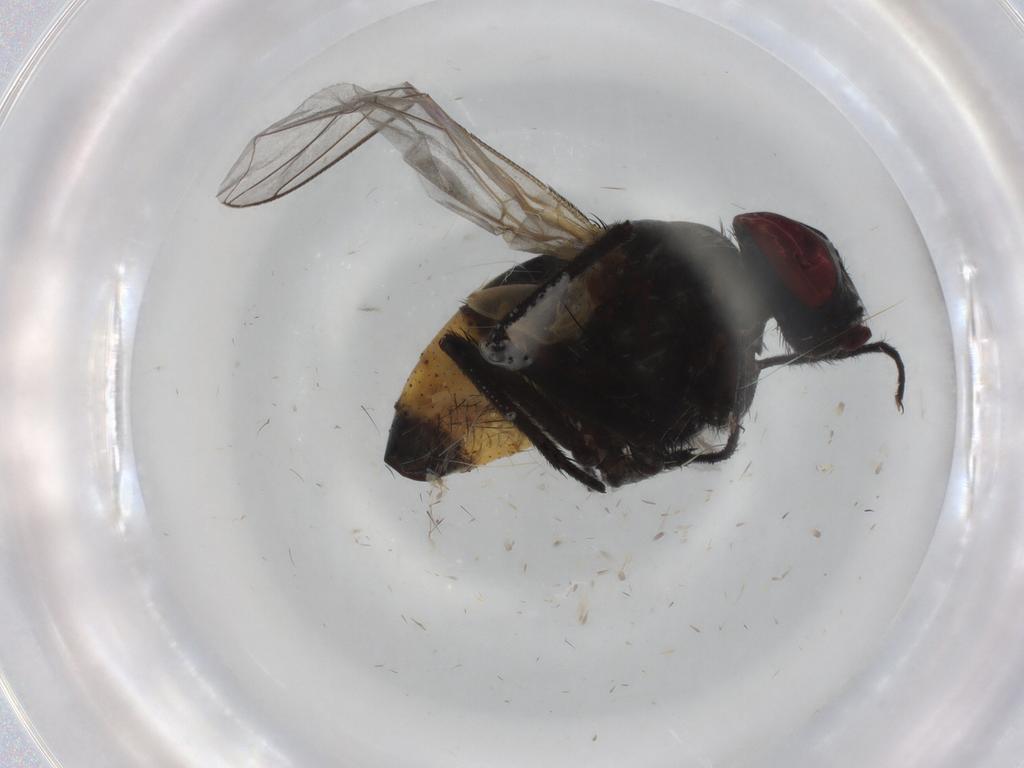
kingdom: Animalia
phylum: Arthropoda
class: Insecta
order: Diptera
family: Muscidae
